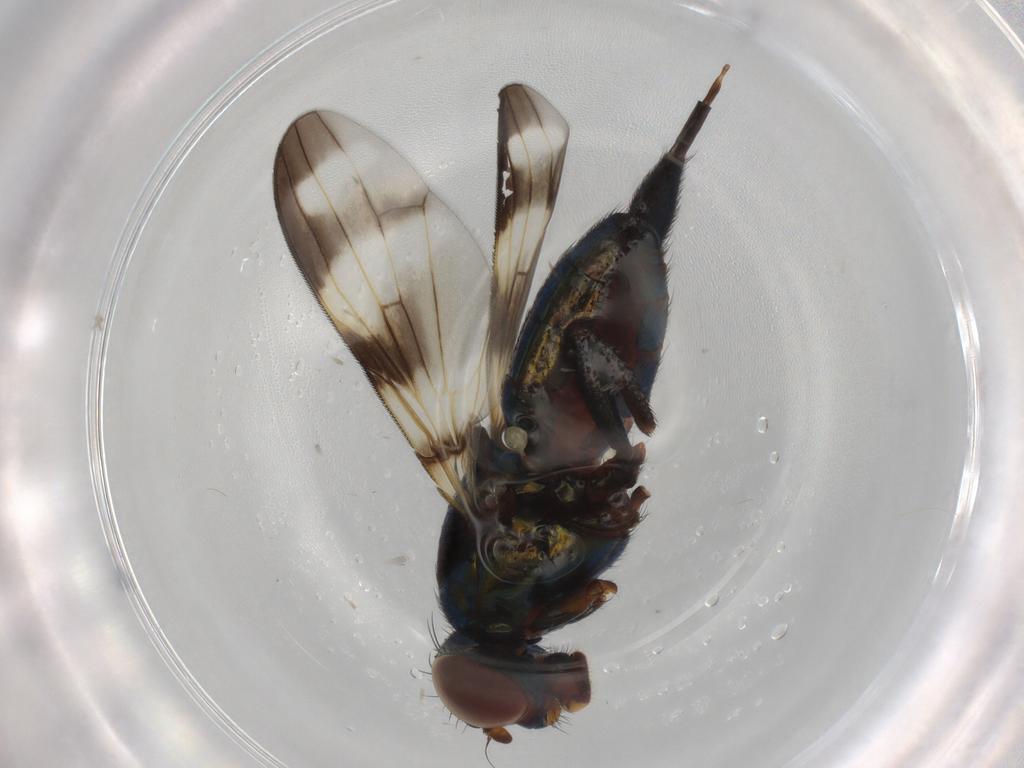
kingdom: Animalia
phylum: Arthropoda
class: Insecta
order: Diptera
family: Ulidiidae
